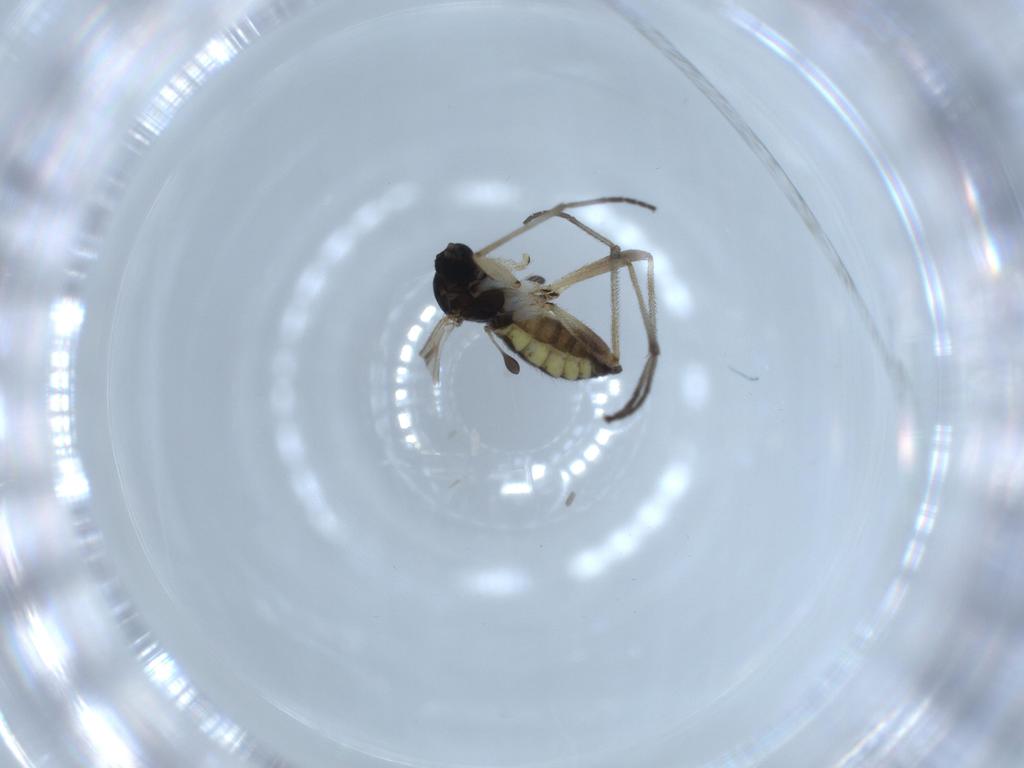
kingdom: Animalia
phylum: Arthropoda
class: Insecta
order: Diptera
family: Sciaridae
